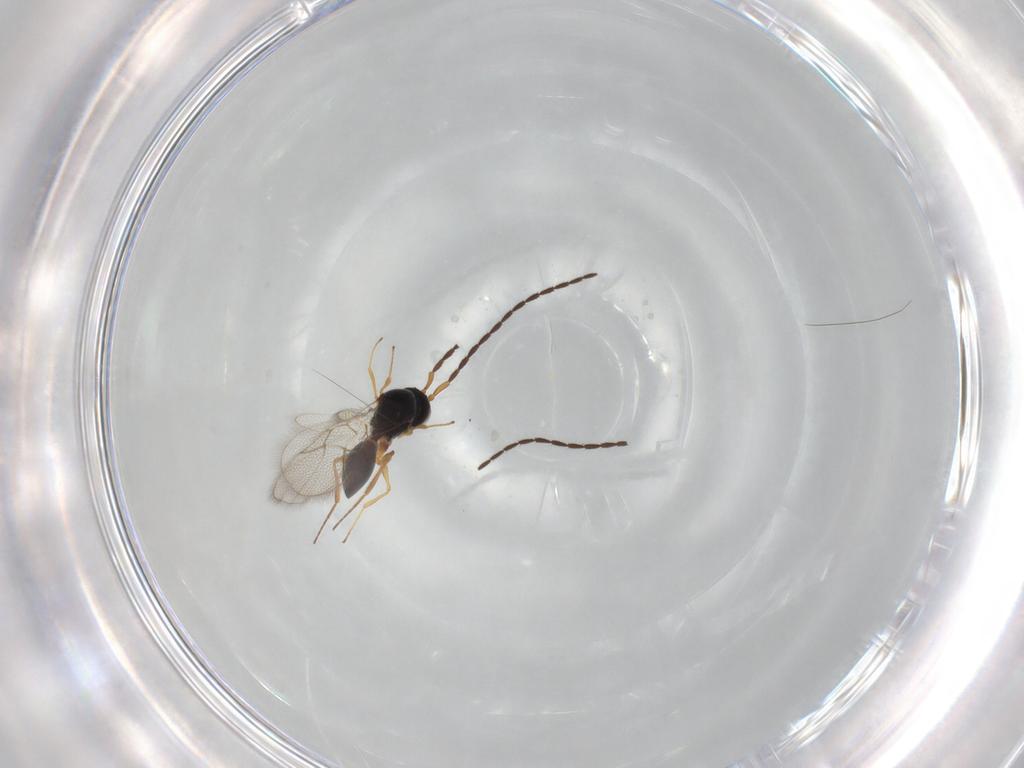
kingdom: Animalia
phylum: Arthropoda
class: Insecta
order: Hymenoptera
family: Figitidae
